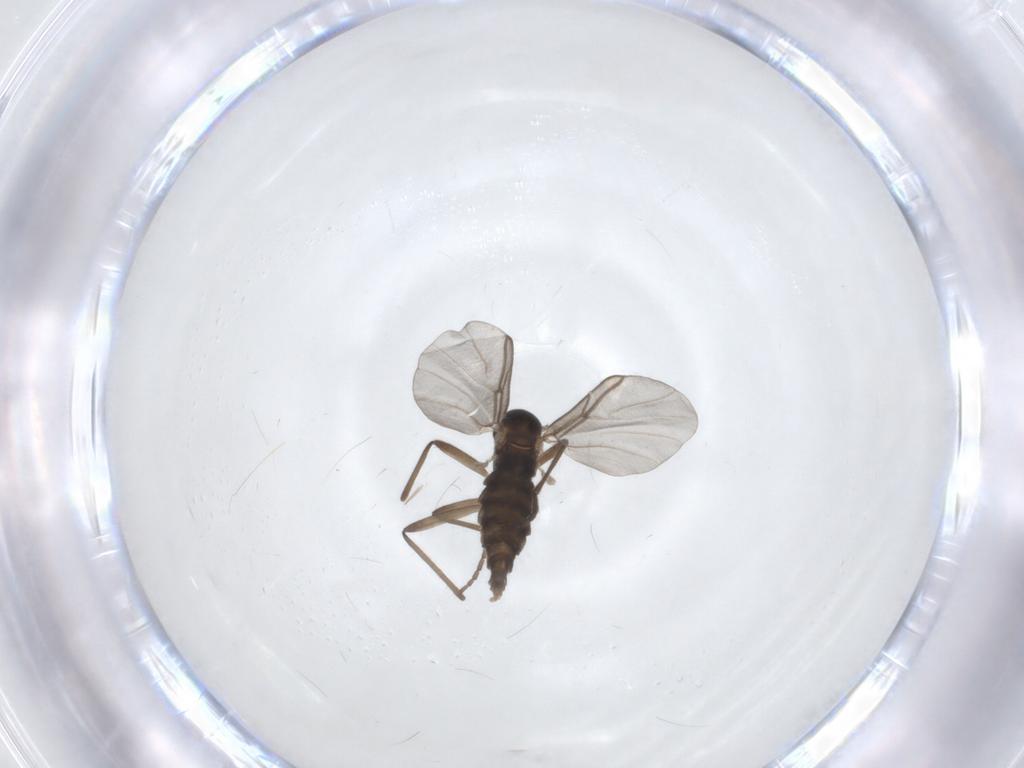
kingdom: Animalia
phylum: Arthropoda
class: Insecta
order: Diptera
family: Cecidomyiidae
